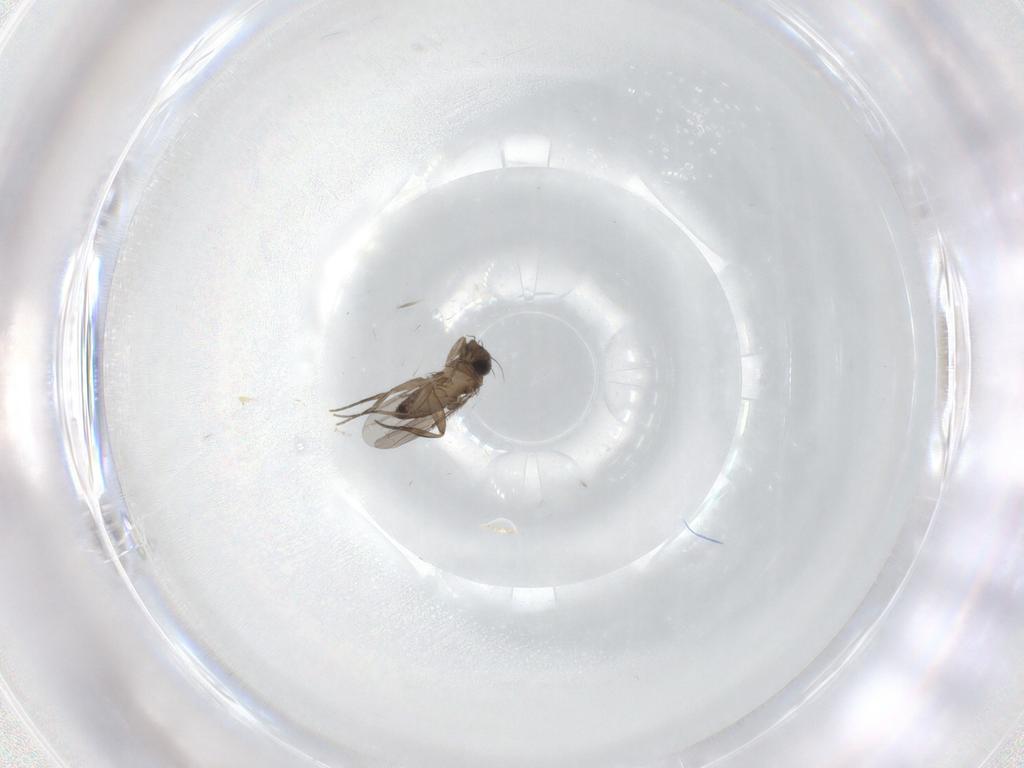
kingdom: Animalia
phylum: Arthropoda
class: Insecta
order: Diptera
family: Phoridae
